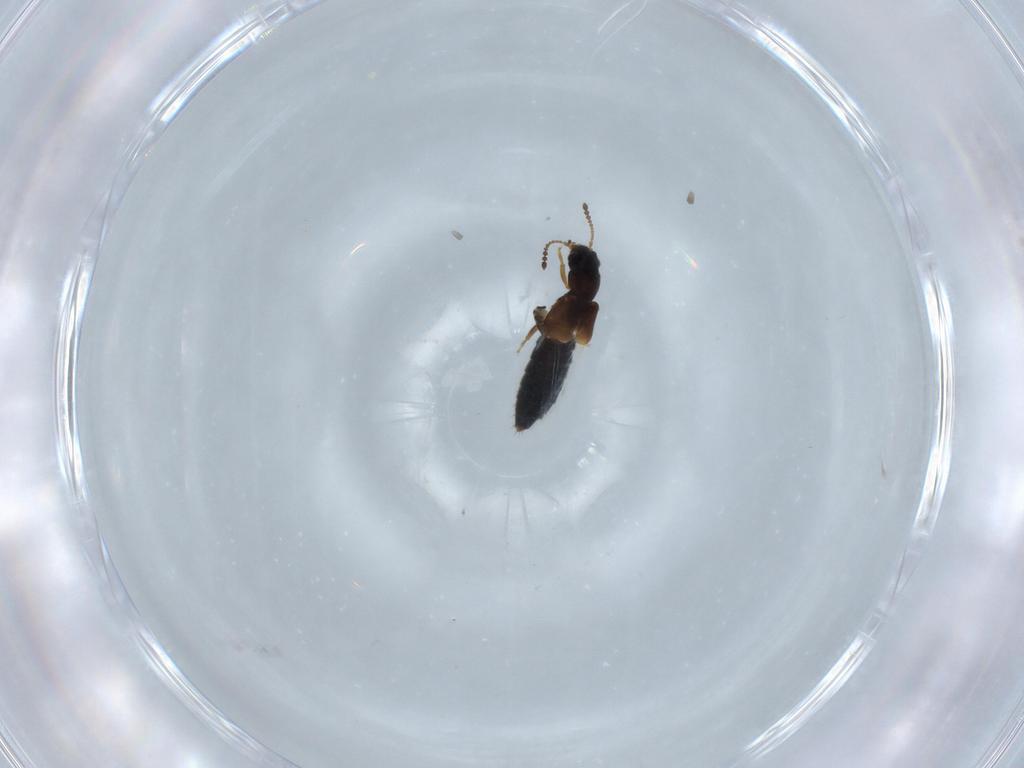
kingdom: Animalia
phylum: Arthropoda
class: Insecta
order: Coleoptera
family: Staphylinidae
